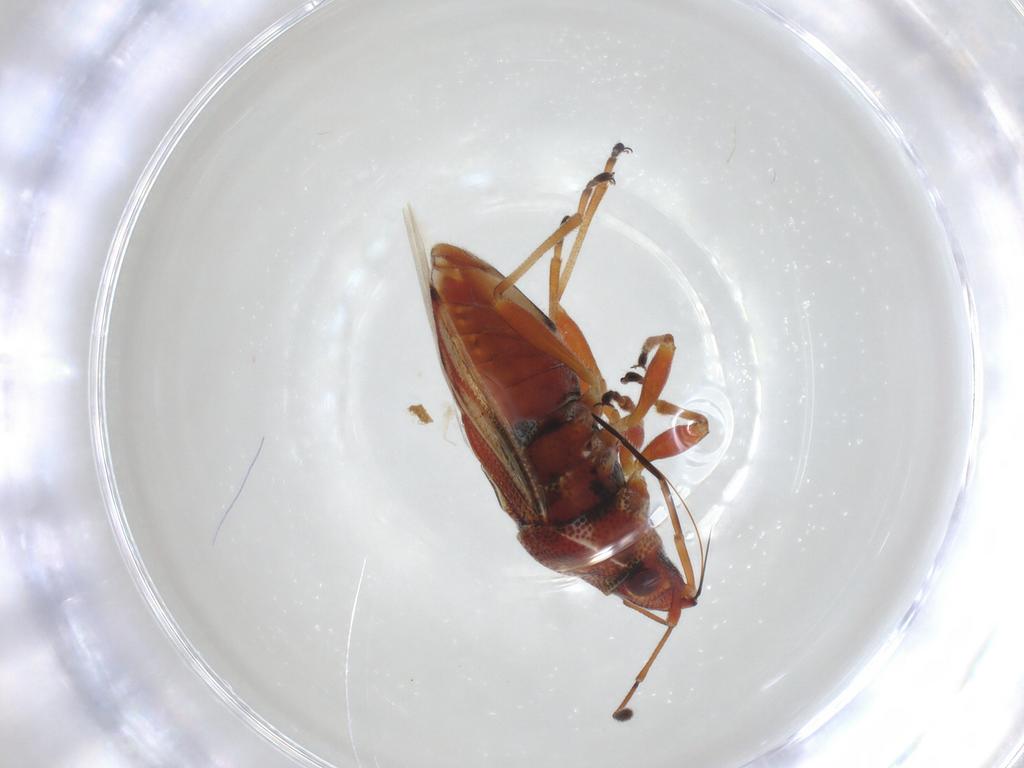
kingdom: Animalia
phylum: Arthropoda
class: Insecta
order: Hemiptera
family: Lygaeidae
